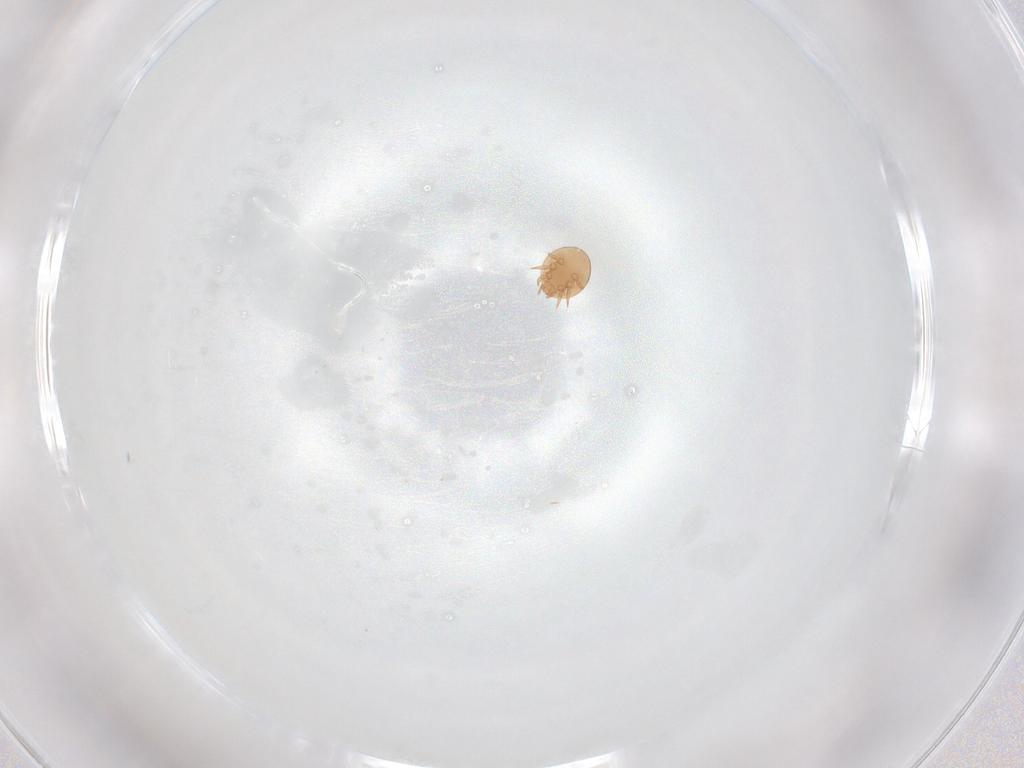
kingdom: Animalia
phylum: Arthropoda
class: Arachnida
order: Mesostigmata
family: Trematuridae
